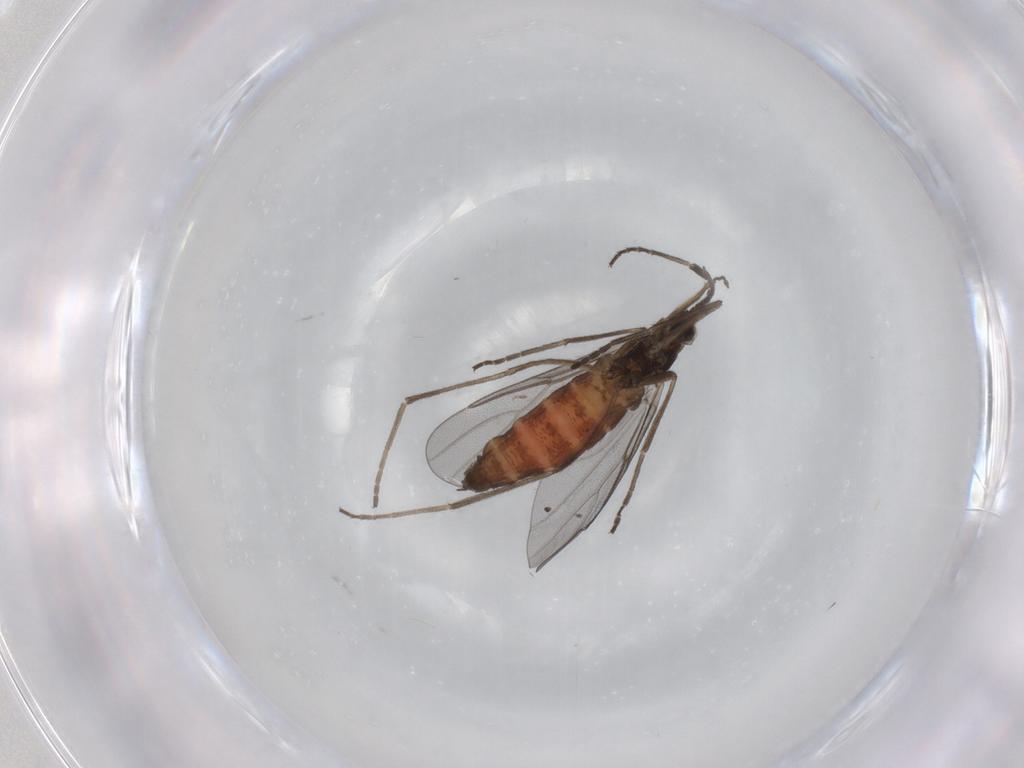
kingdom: Animalia
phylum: Arthropoda
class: Insecta
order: Diptera
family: Cecidomyiidae
